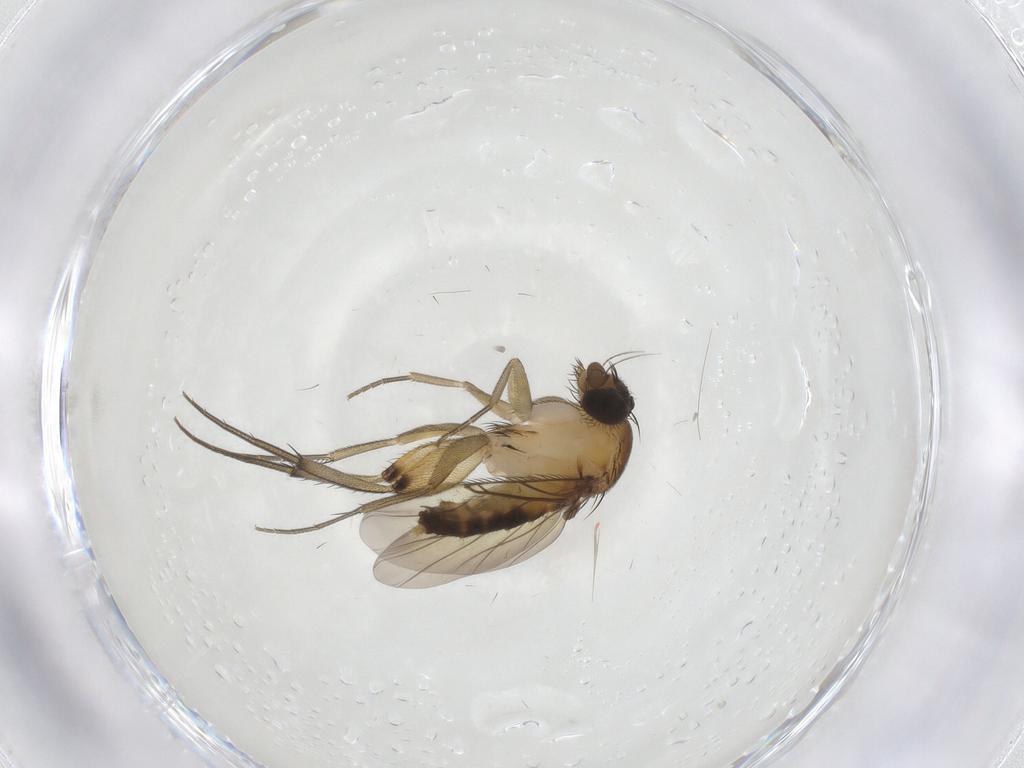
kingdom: Animalia
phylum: Arthropoda
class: Insecta
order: Diptera
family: Phoridae
